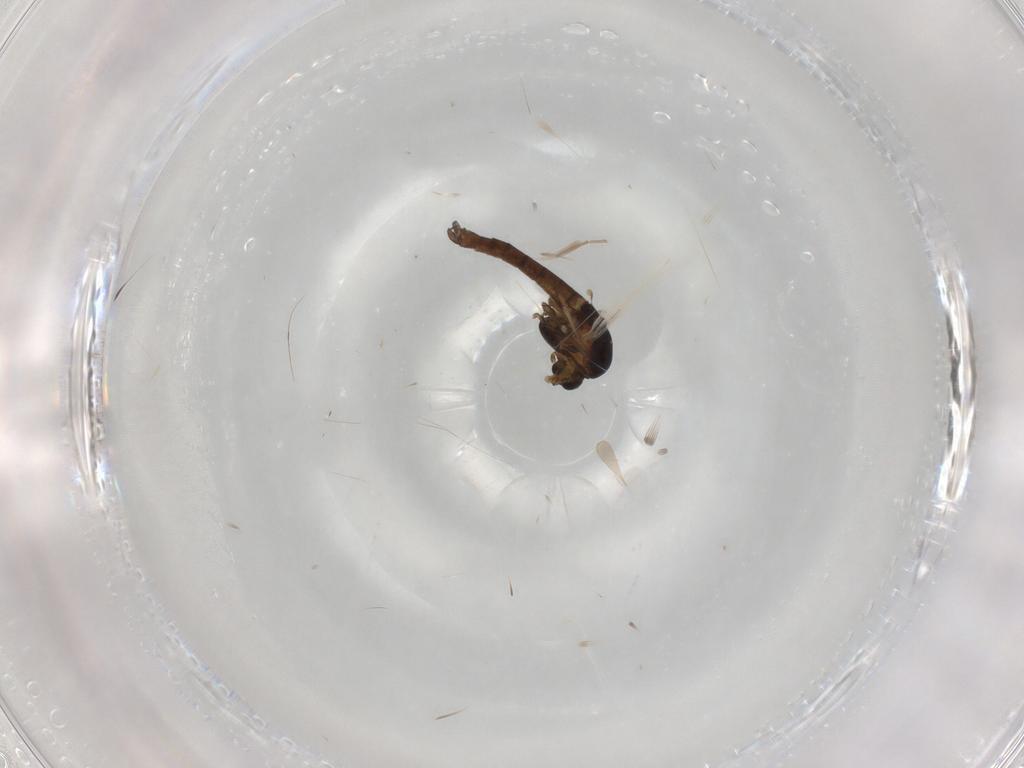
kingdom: Animalia
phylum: Arthropoda
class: Insecta
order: Diptera
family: Chironomidae
